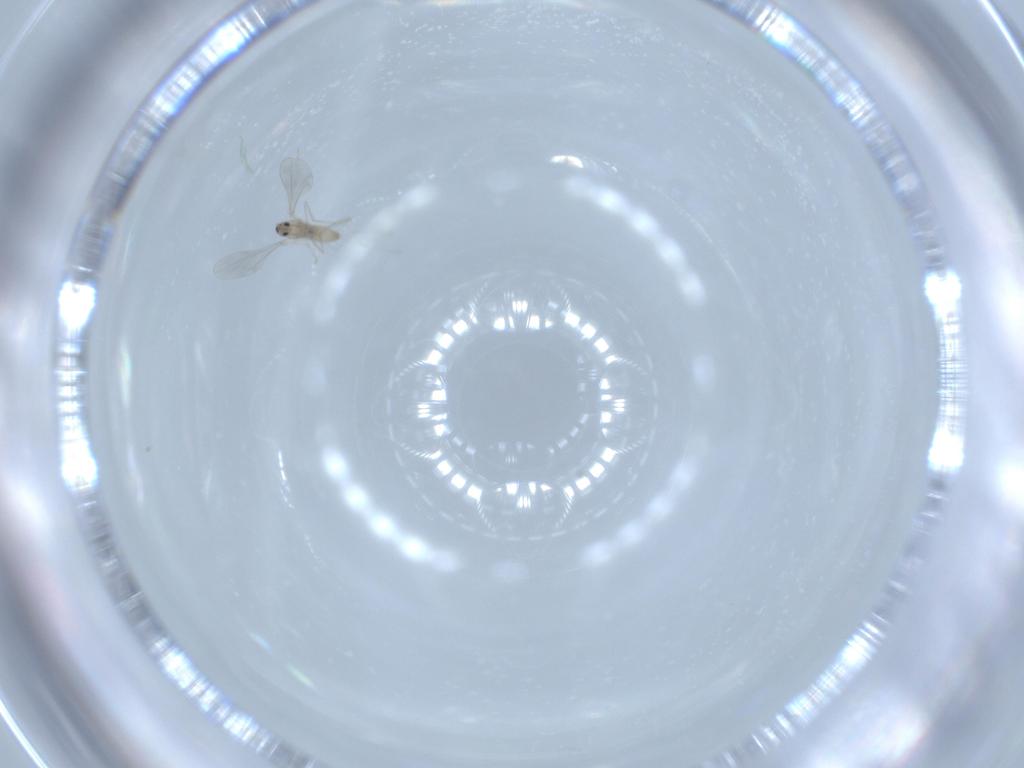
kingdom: Animalia
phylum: Arthropoda
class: Insecta
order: Diptera
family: Cecidomyiidae
